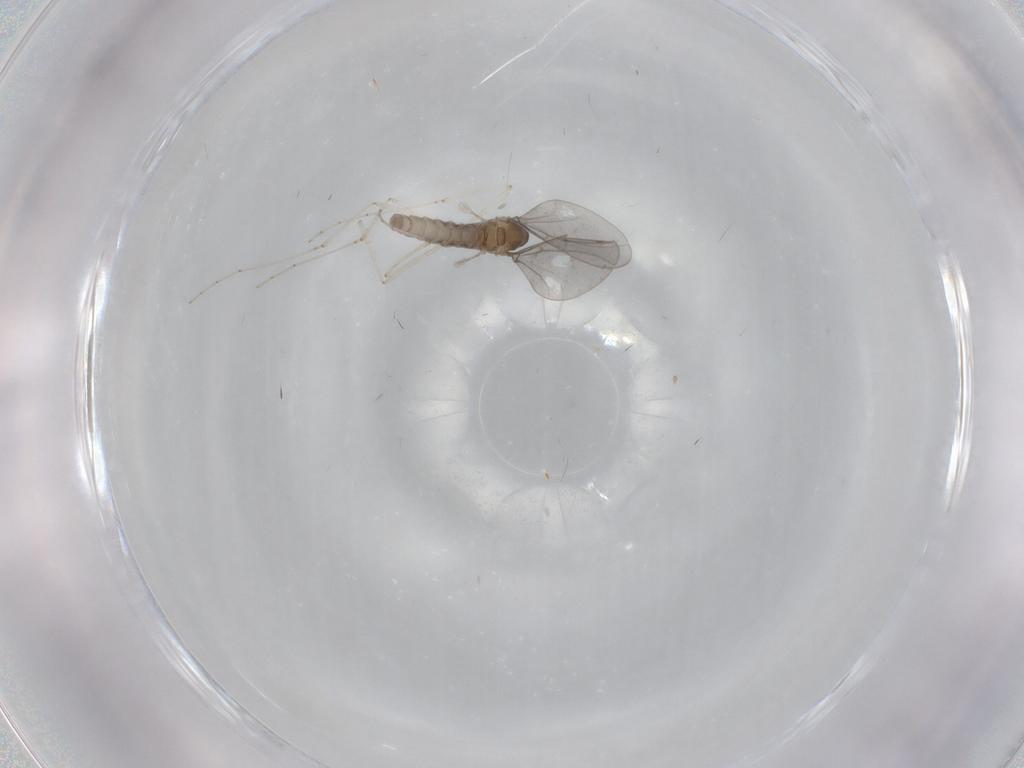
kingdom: Animalia
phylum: Arthropoda
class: Insecta
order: Diptera
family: Cecidomyiidae
